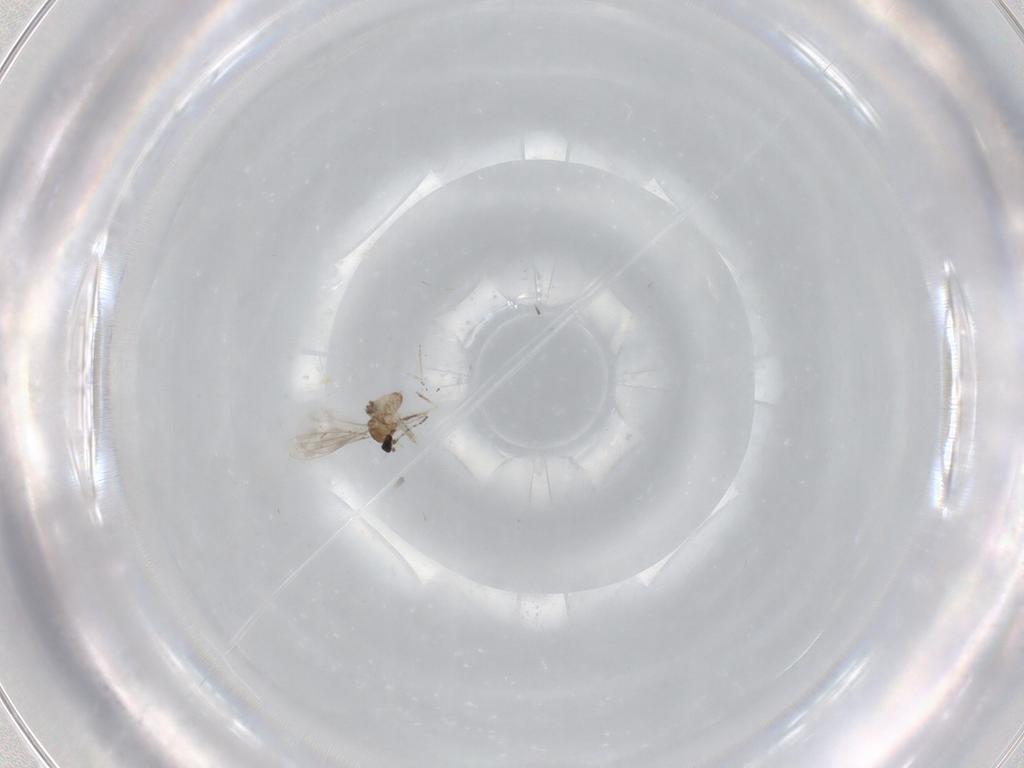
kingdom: Animalia
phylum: Arthropoda
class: Insecta
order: Diptera
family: Cecidomyiidae
